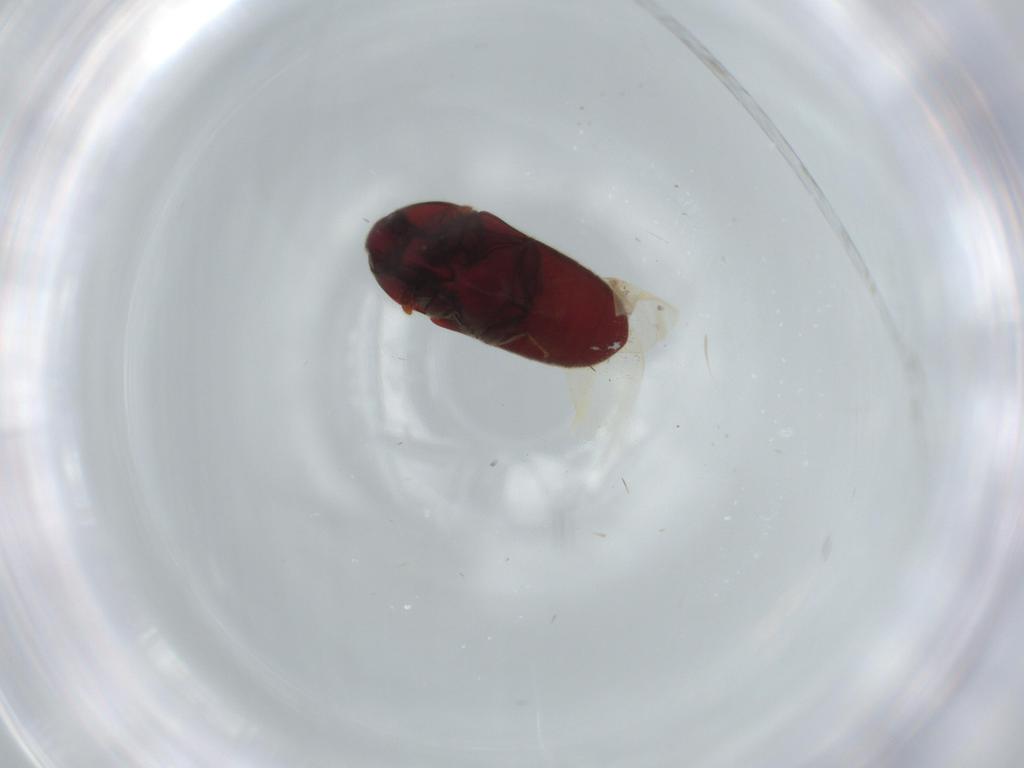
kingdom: Animalia
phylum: Arthropoda
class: Insecta
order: Coleoptera
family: Throscidae
